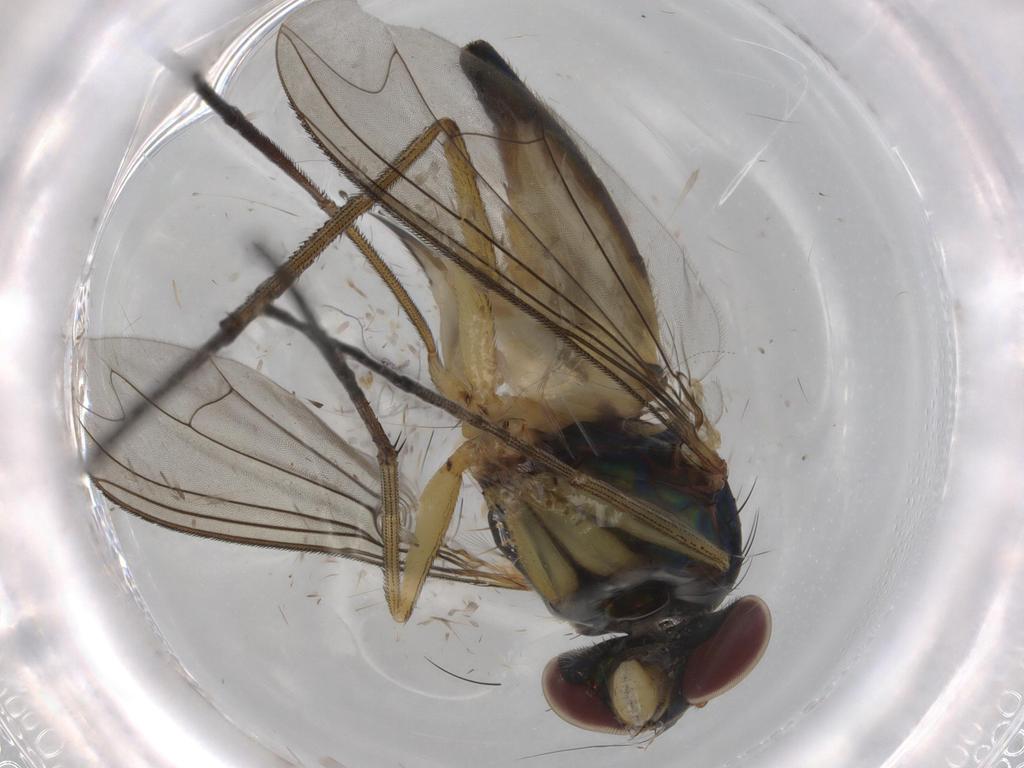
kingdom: Animalia
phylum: Arthropoda
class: Insecta
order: Diptera
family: Dolichopodidae
